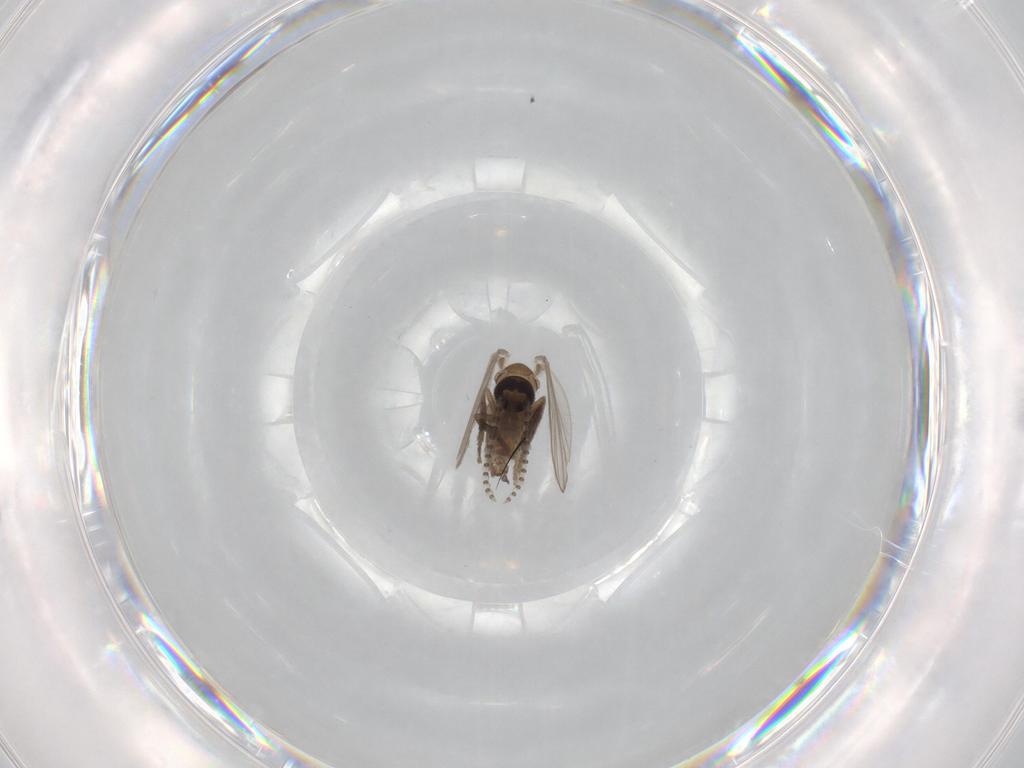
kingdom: Animalia
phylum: Arthropoda
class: Insecta
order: Diptera
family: Psychodidae
